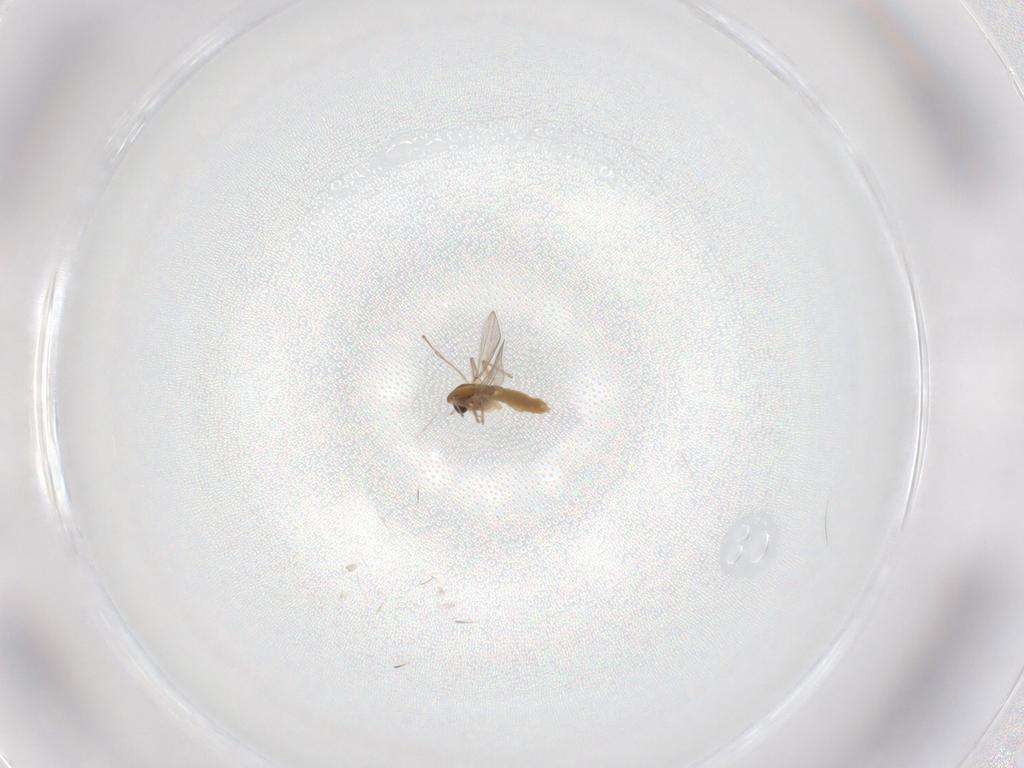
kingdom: Animalia
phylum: Arthropoda
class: Insecta
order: Diptera
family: Chironomidae
